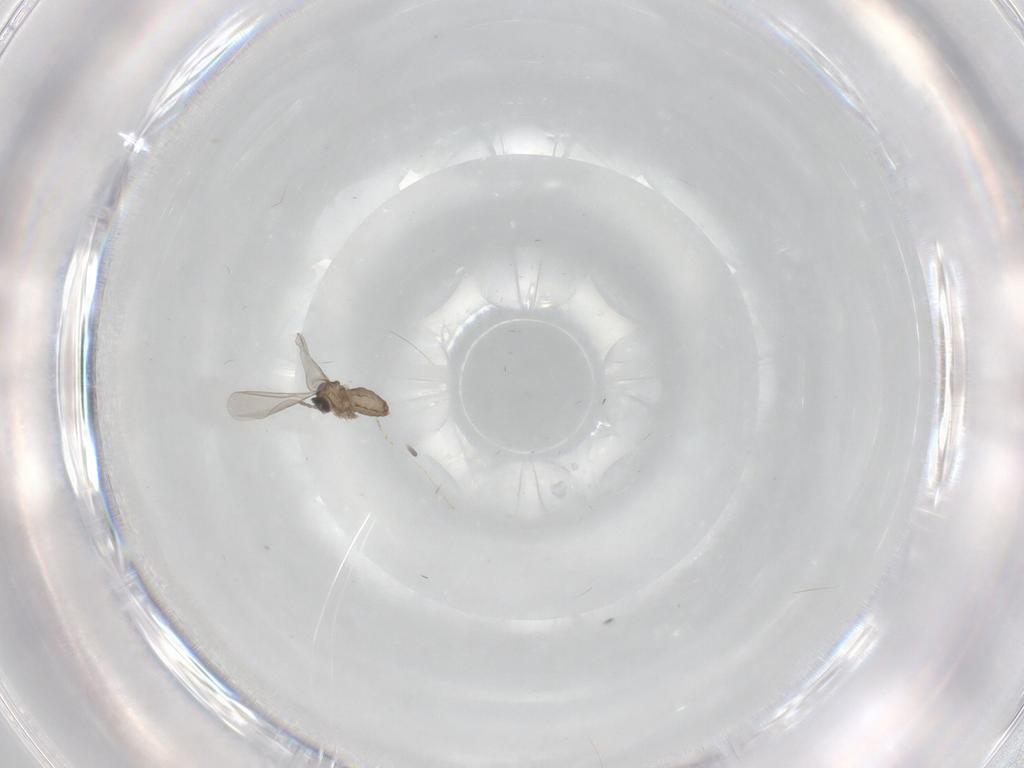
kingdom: Animalia
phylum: Arthropoda
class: Insecta
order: Diptera
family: Cecidomyiidae
